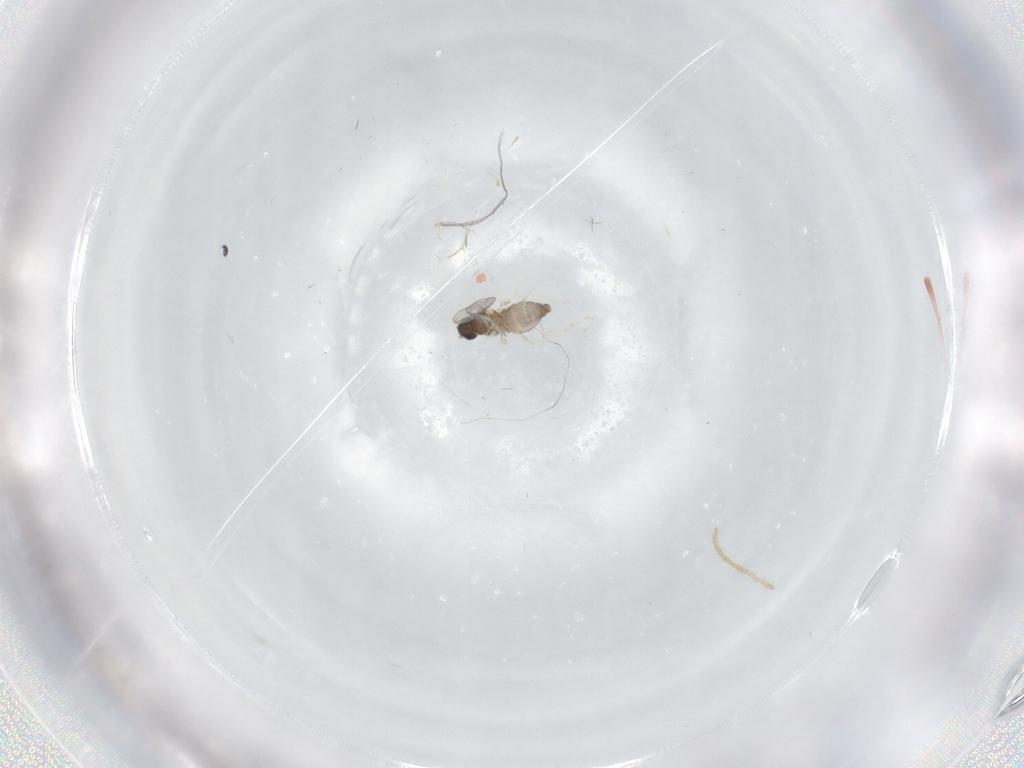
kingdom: Animalia
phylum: Arthropoda
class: Insecta
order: Diptera
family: Cecidomyiidae
